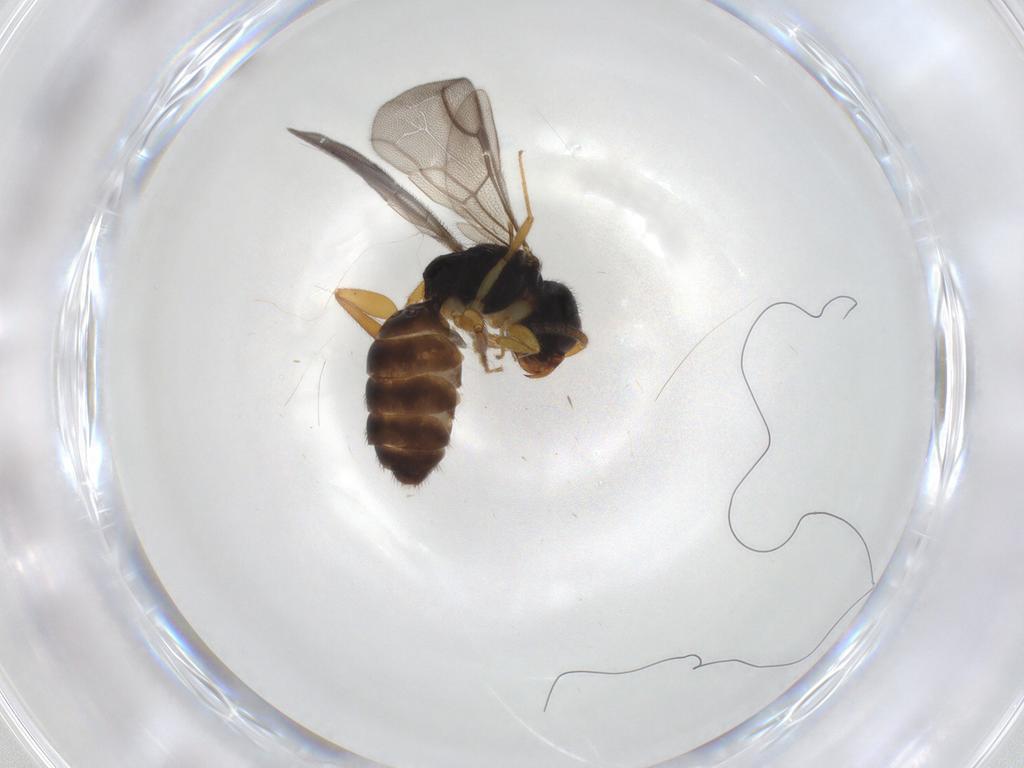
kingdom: Animalia
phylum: Arthropoda
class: Insecta
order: Hymenoptera
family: Bethylidae
